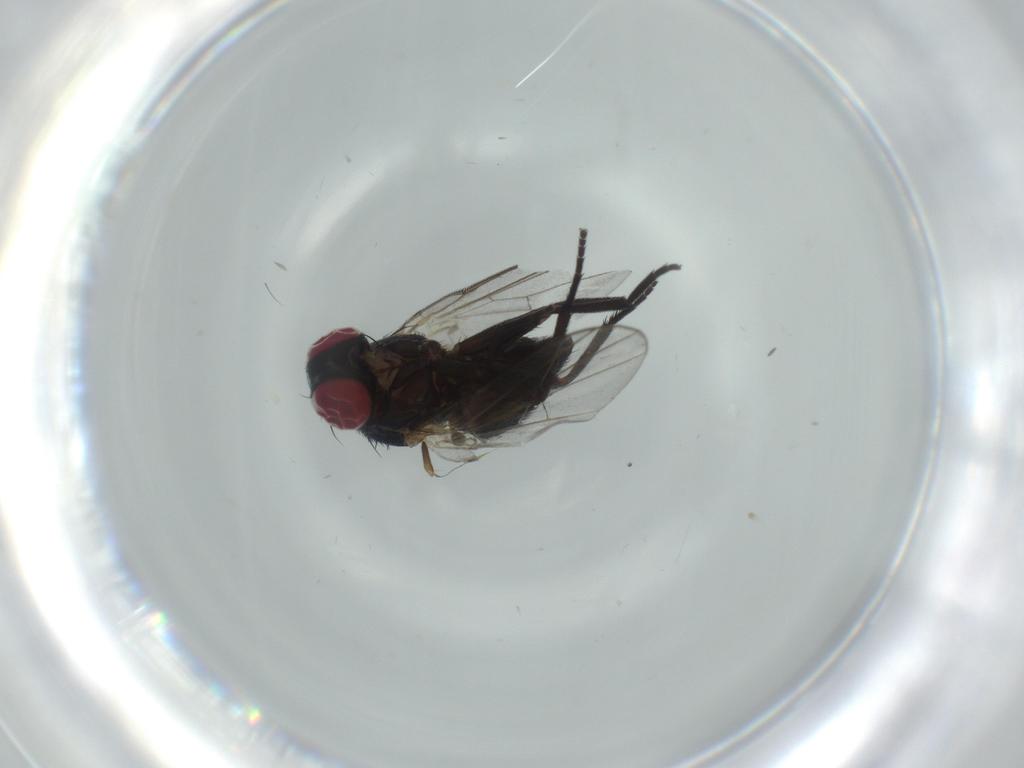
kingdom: Animalia
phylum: Arthropoda
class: Insecta
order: Diptera
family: Agromyzidae
